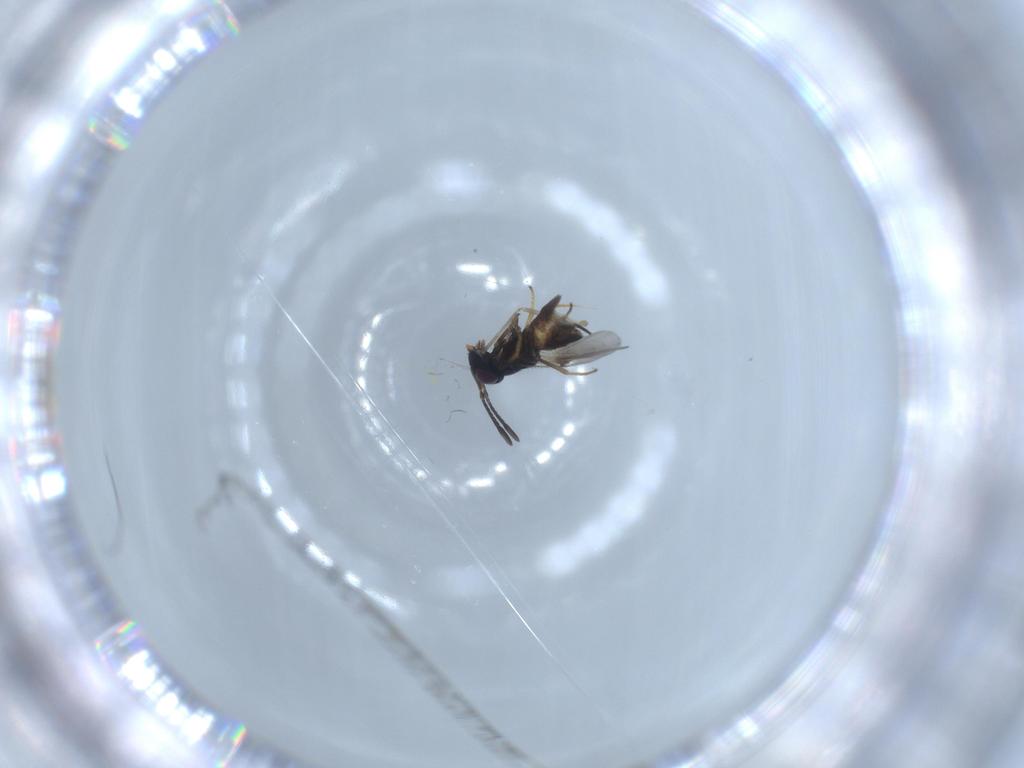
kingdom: Animalia
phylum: Arthropoda
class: Insecta
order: Hymenoptera
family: Encyrtidae
